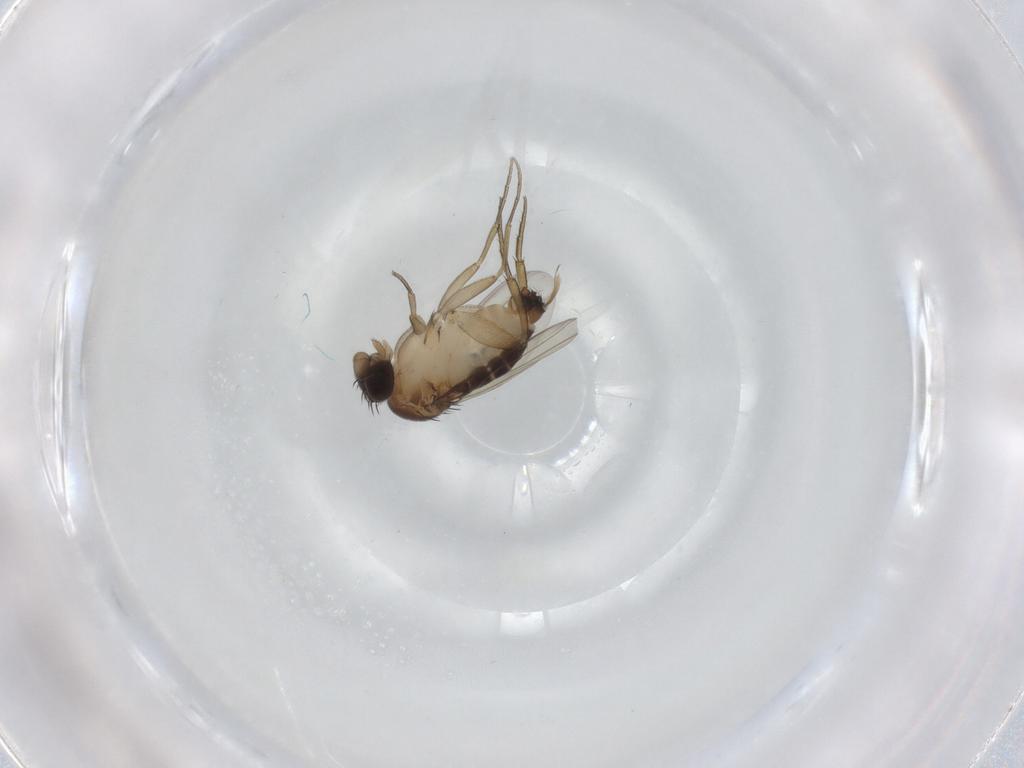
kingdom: Animalia
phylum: Arthropoda
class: Insecta
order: Diptera
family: Phoridae
